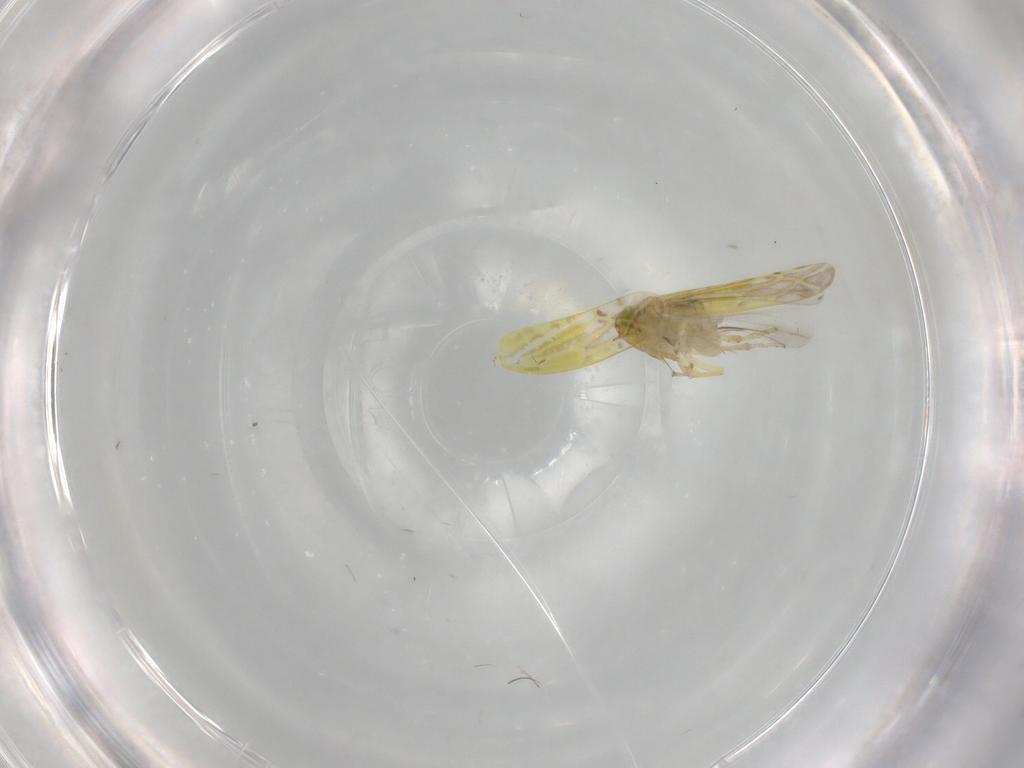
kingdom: Animalia
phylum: Arthropoda
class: Insecta
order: Hemiptera
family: Cicadellidae
